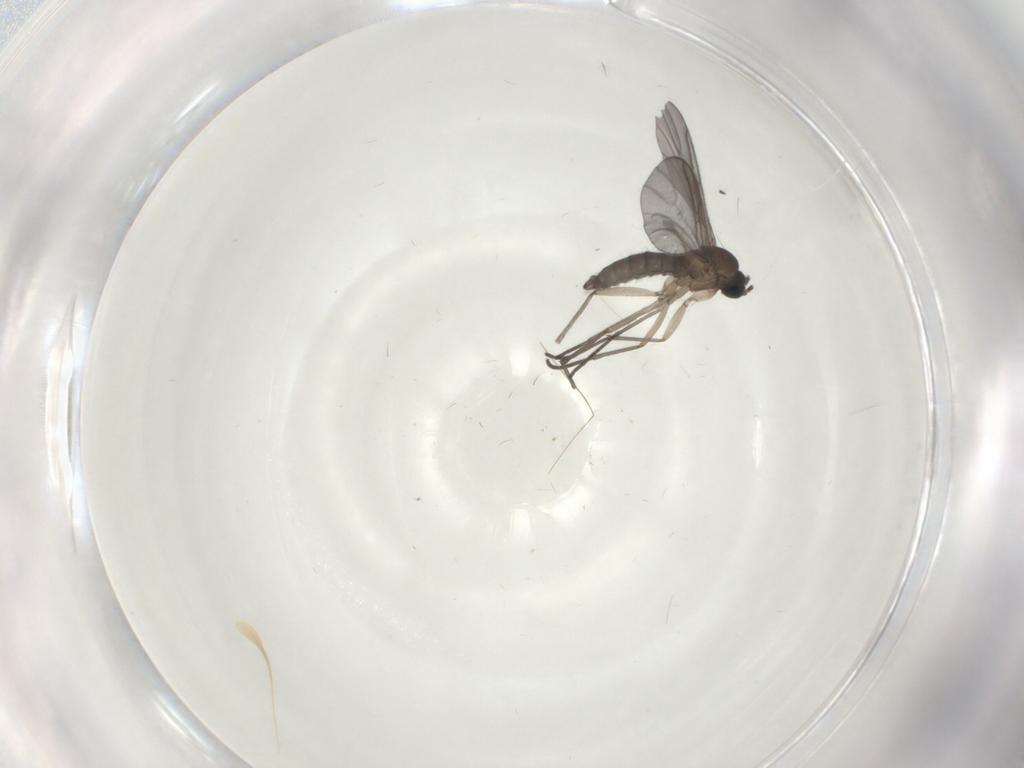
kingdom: Animalia
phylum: Arthropoda
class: Insecta
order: Diptera
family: Sciaridae
